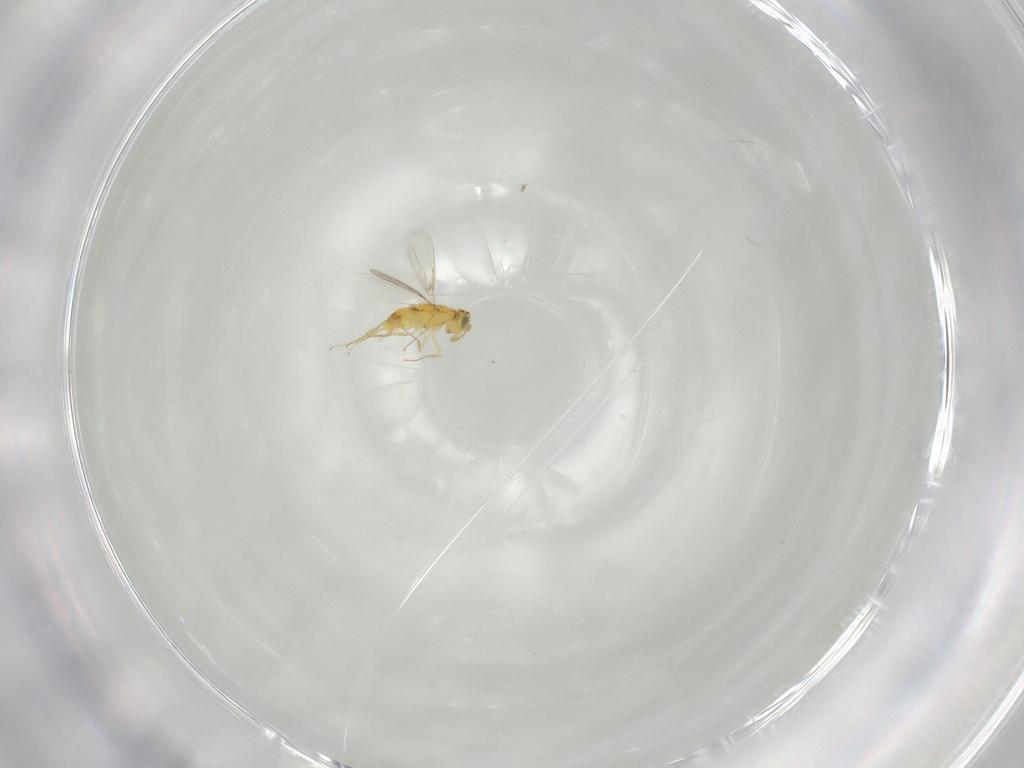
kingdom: Animalia
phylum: Arthropoda
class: Insecta
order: Hymenoptera
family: Aphelinidae
